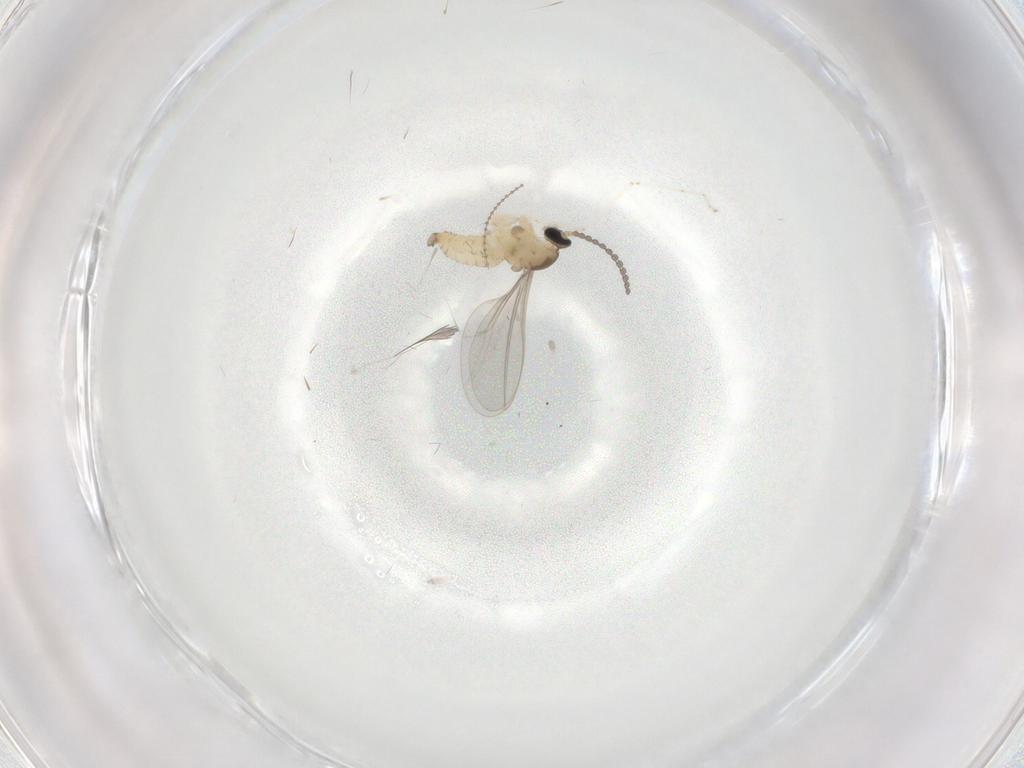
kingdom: Animalia
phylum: Arthropoda
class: Insecta
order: Diptera
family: Cecidomyiidae
